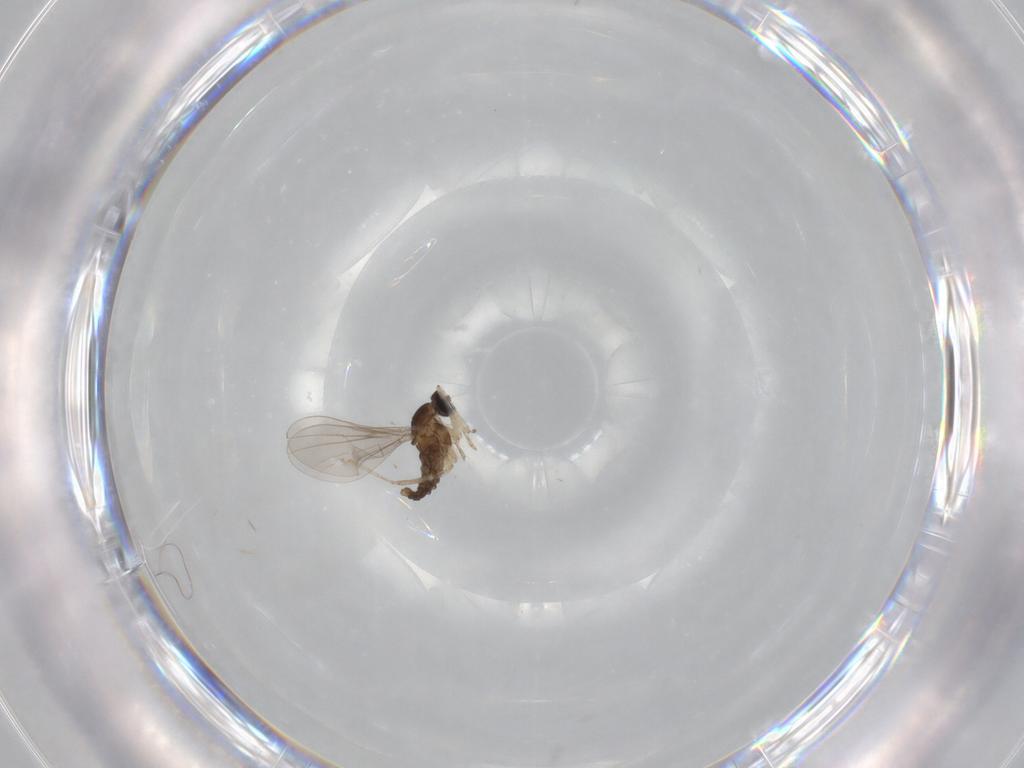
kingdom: Animalia
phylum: Arthropoda
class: Insecta
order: Diptera
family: Cecidomyiidae
